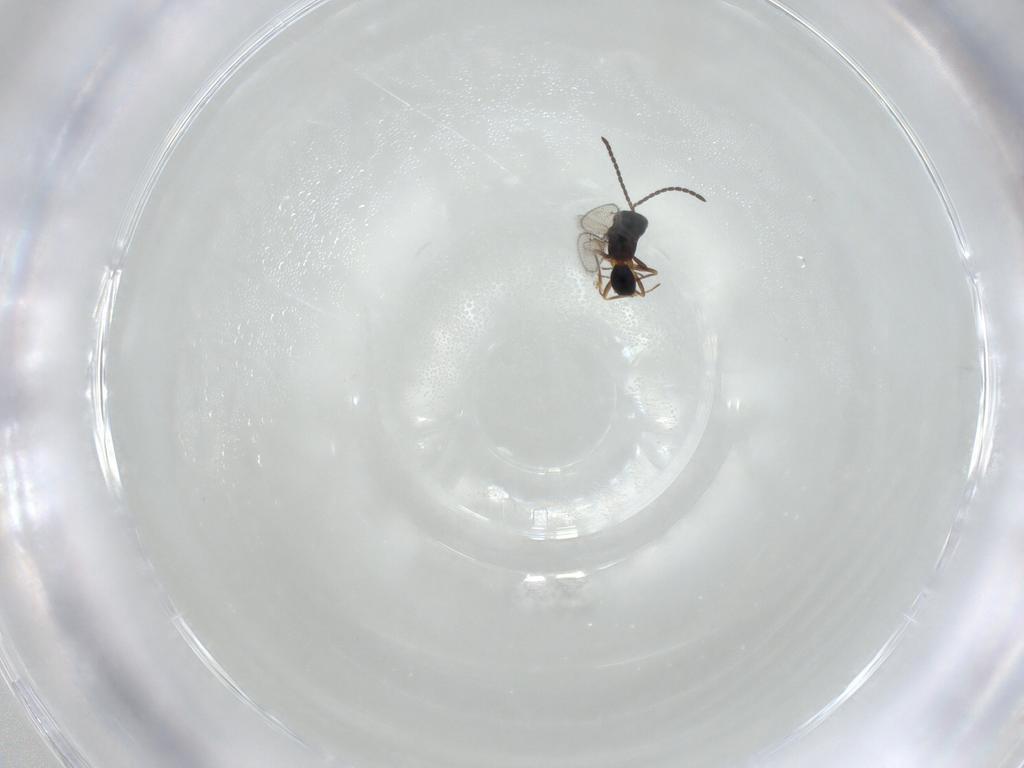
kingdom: Animalia
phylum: Arthropoda
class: Insecta
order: Hymenoptera
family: Diparidae
